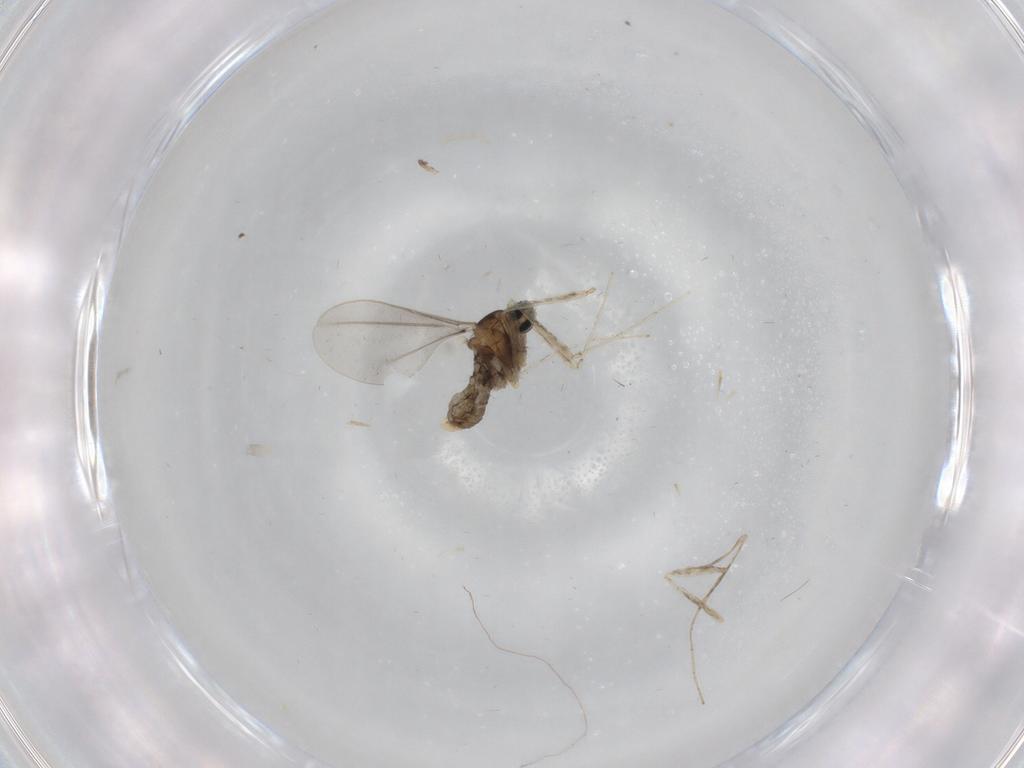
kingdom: Animalia
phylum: Arthropoda
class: Insecta
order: Diptera
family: Cecidomyiidae
